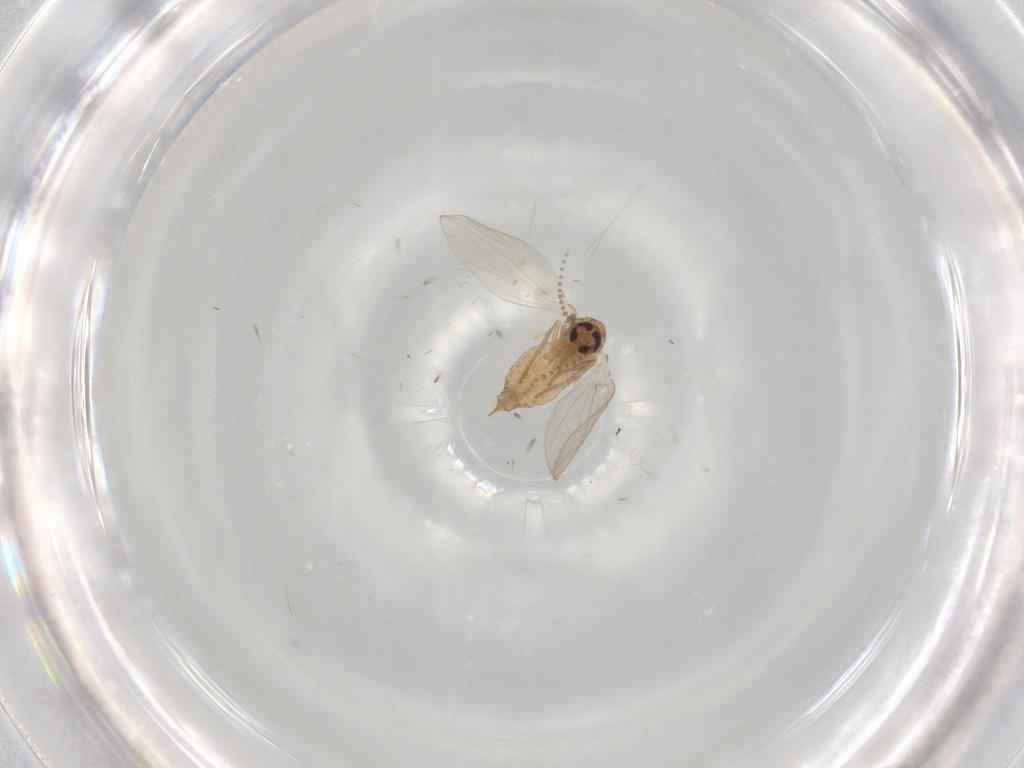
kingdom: Animalia
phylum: Arthropoda
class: Insecta
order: Diptera
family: Psychodidae
